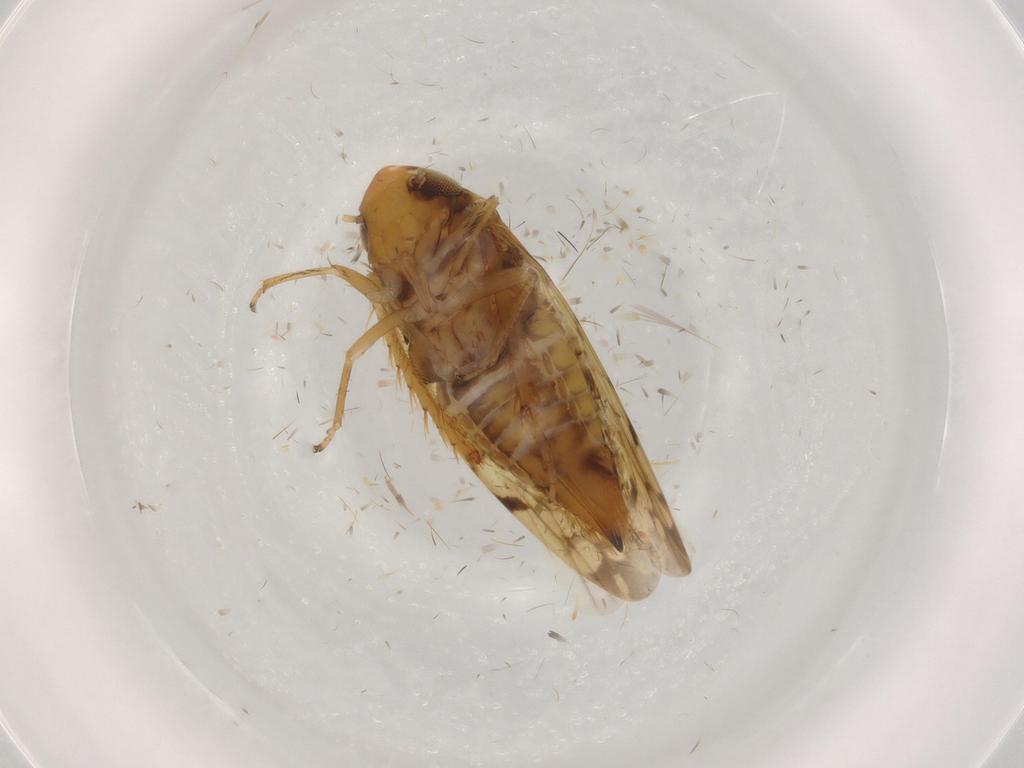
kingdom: Animalia
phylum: Arthropoda
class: Insecta
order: Hemiptera
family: Cicadellidae
